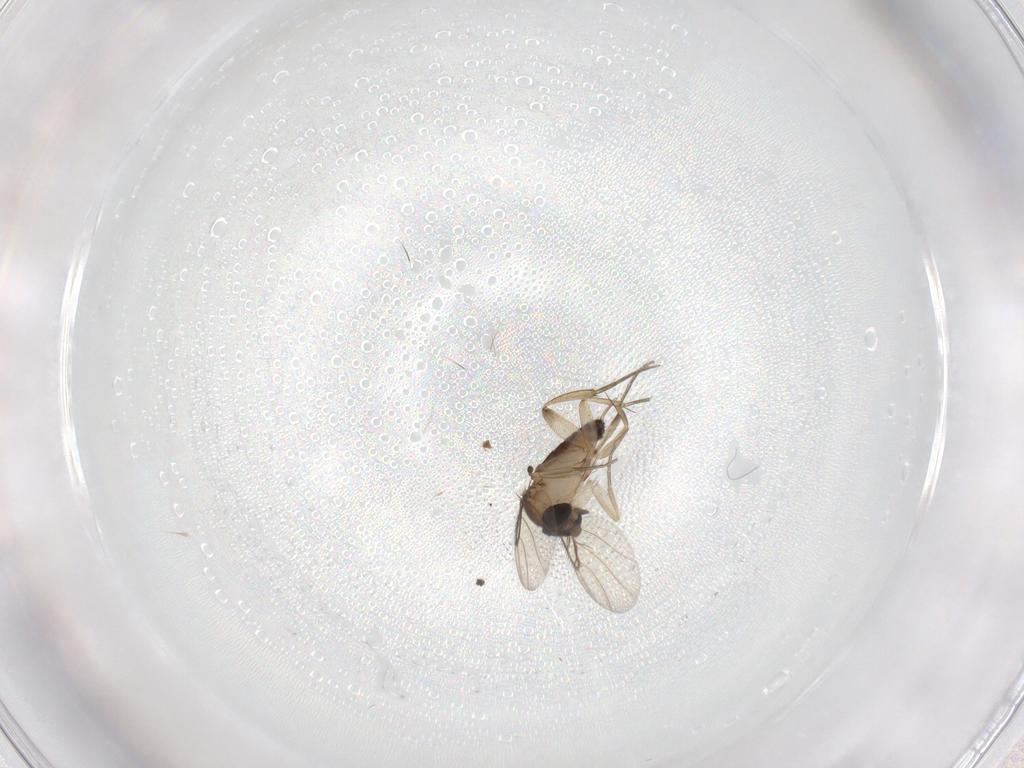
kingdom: Animalia
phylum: Arthropoda
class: Insecta
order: Diptera
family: Phoridae
